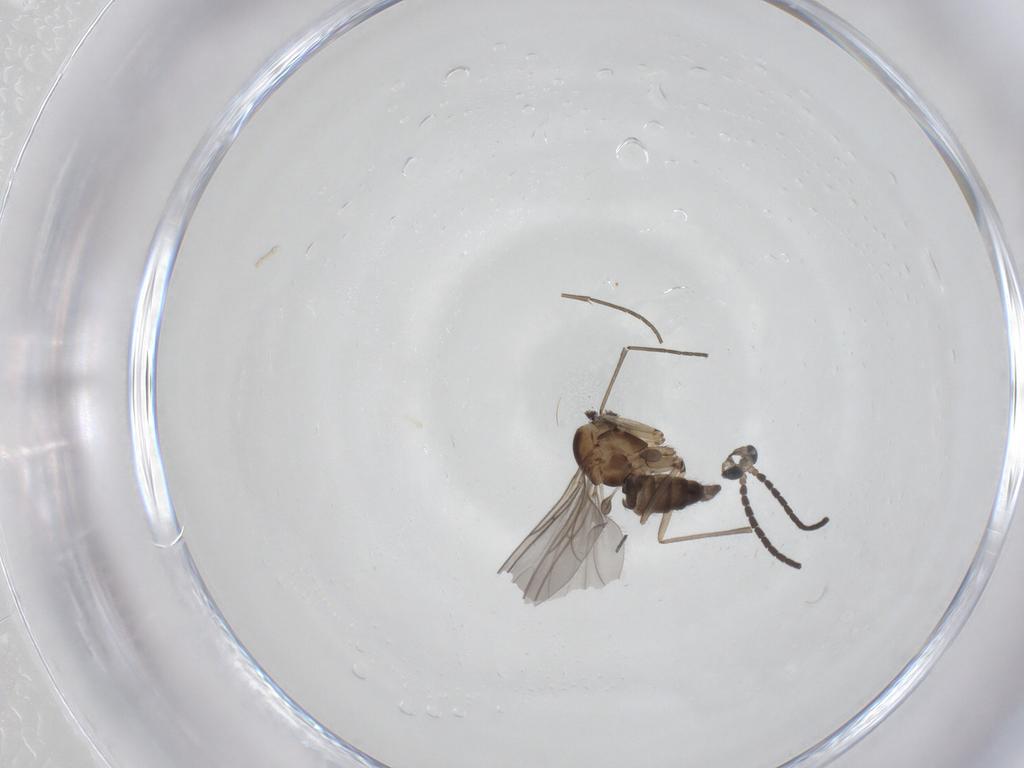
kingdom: Animalia
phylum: Arthropoda
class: Insecta
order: Diptera
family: Sciaridae
